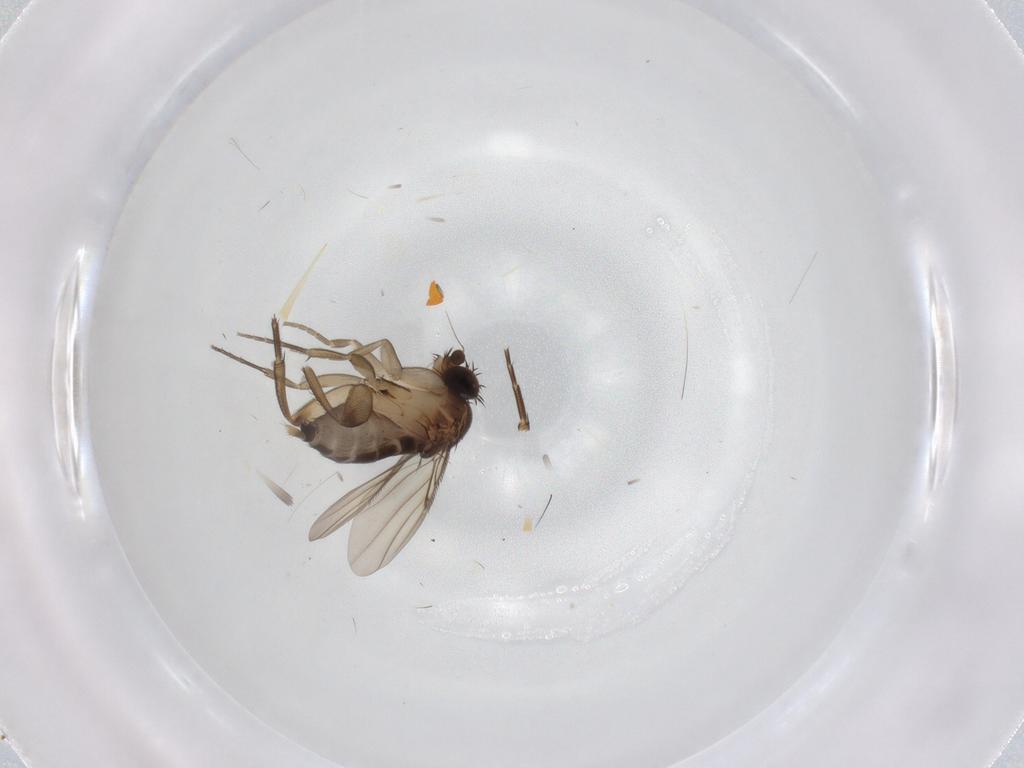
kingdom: Animalia
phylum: Arthropoda
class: Insecta
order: Diptera
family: Phoridae
